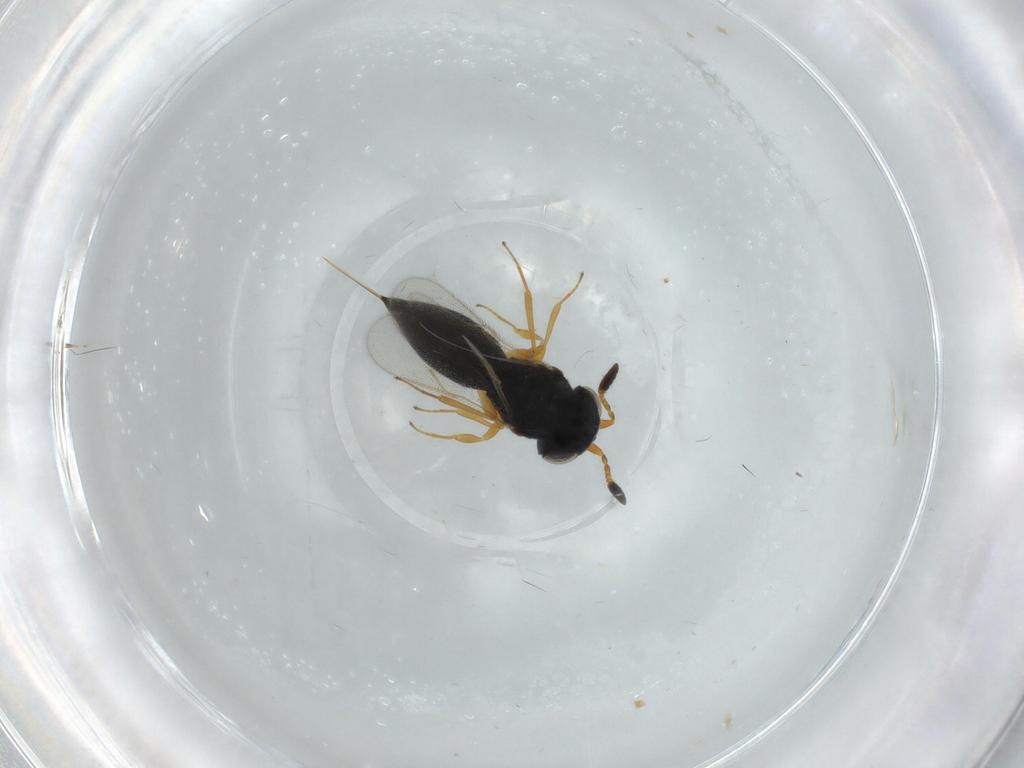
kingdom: Animalia
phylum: Arthropoda
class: Insecta
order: Hymenoptera
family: Scelionidae
